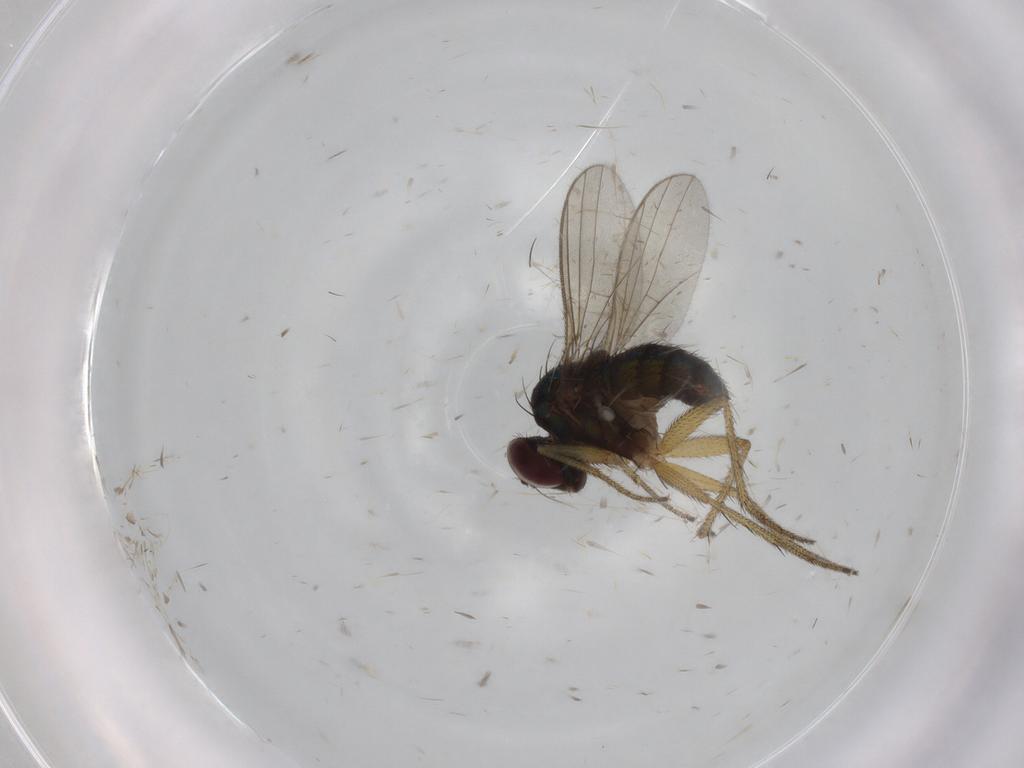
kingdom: Animalia
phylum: Arthropoda
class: Insecta
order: Diptera
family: Dolichopodidae
